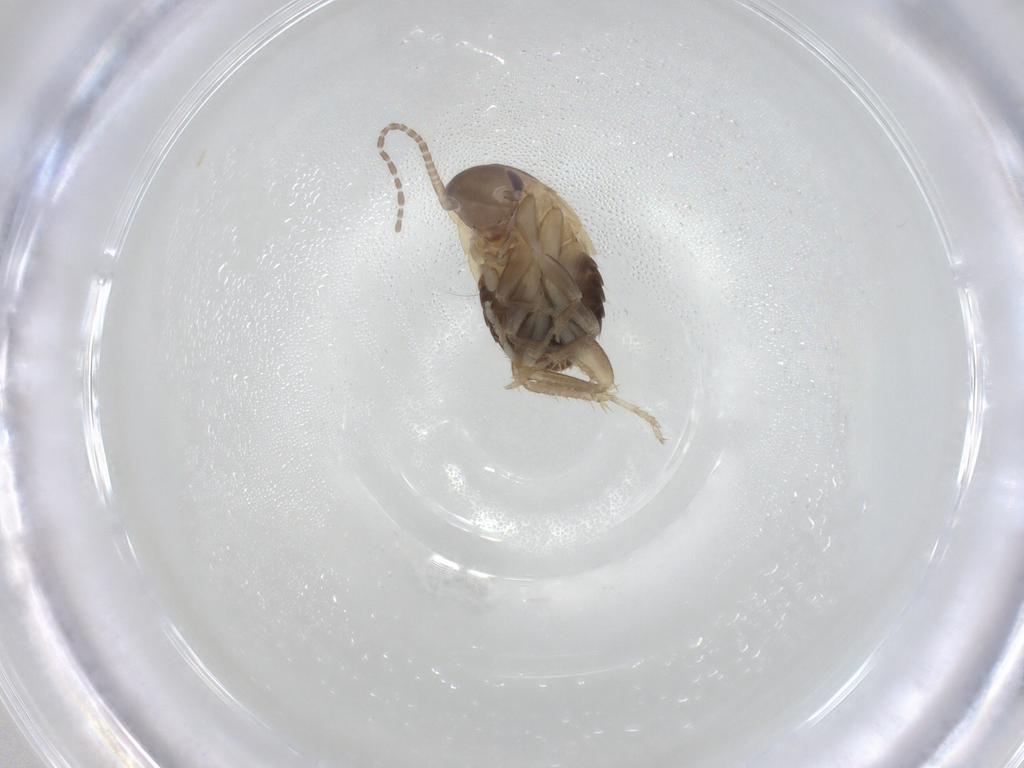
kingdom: Animalia
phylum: Arthropoda
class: Insecta
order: Blattodea
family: Ectobiidae
